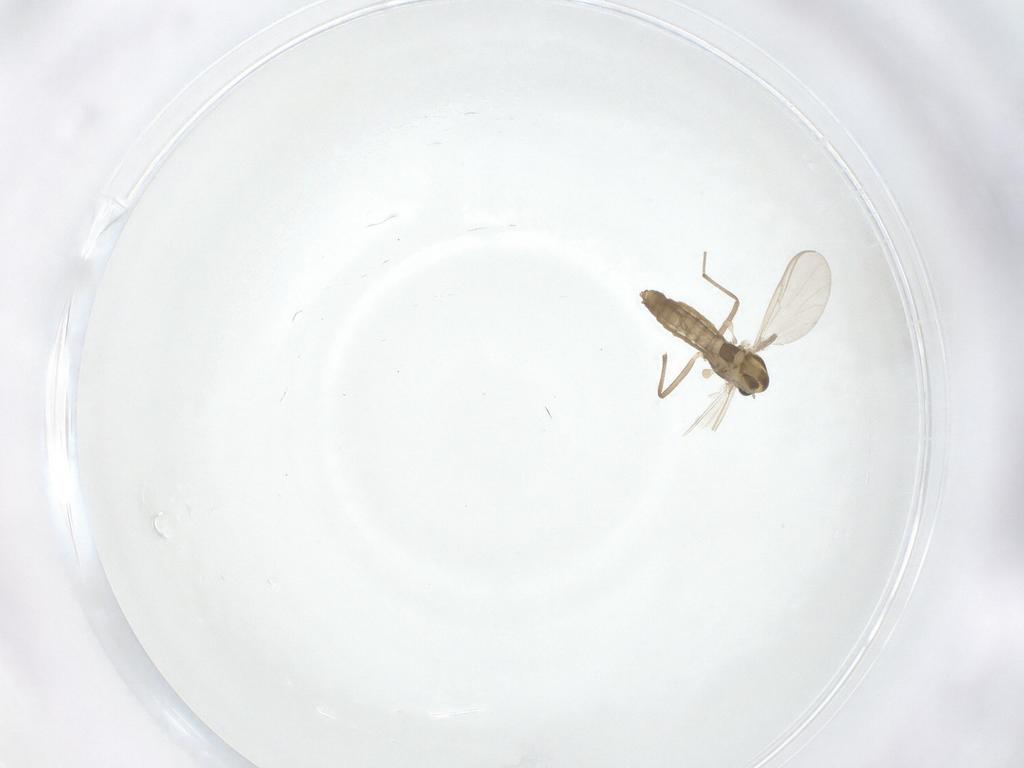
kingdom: Animalia
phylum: Arthropoda
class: Insecta
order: Diptera
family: Chironomidae
